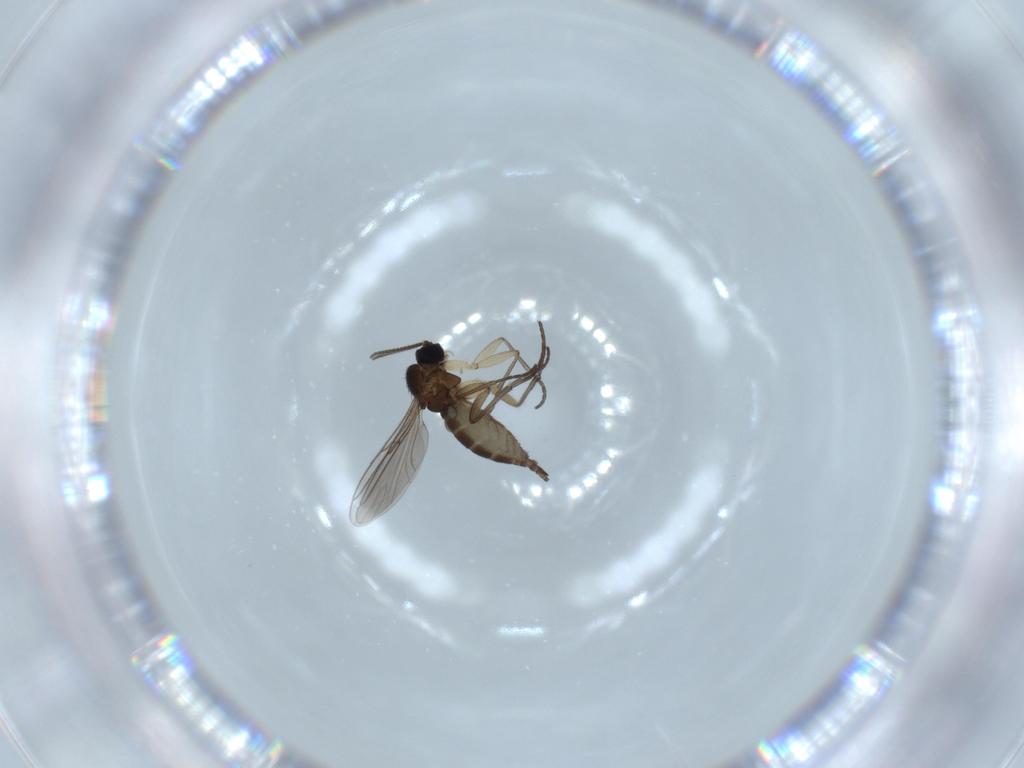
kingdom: Animalia
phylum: Arthropoda
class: Insecta
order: Diptera
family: Sciaridae
